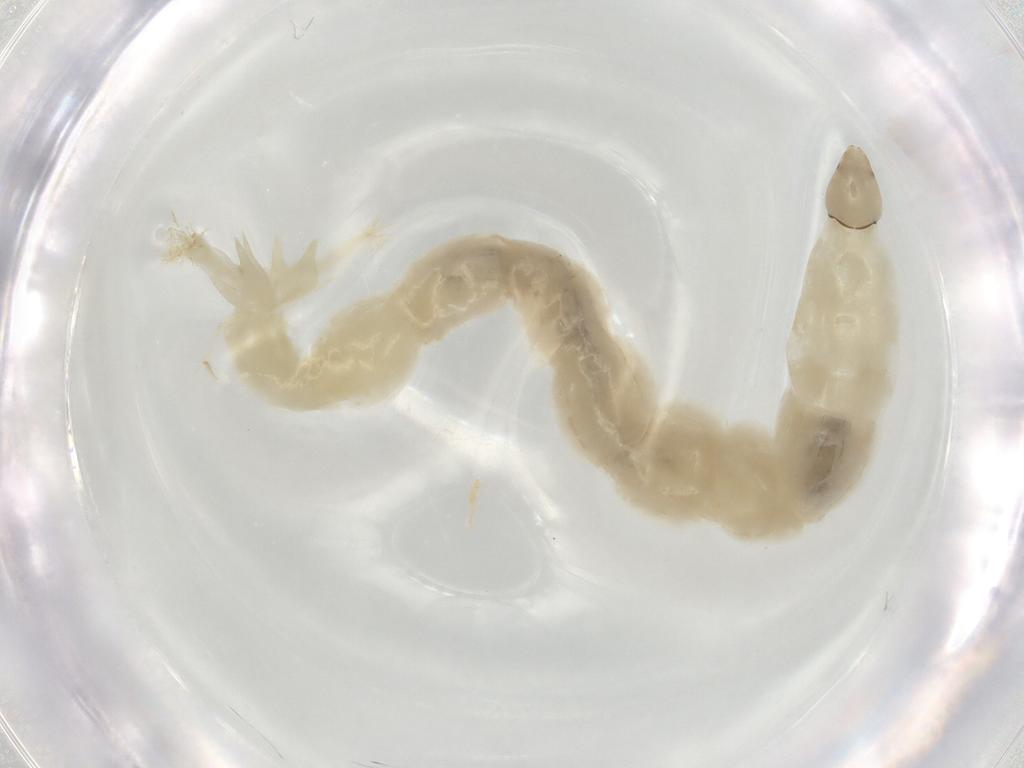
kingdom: Animalia
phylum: Arthropoda
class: Insecta
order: Diptera
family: Chironomidae
